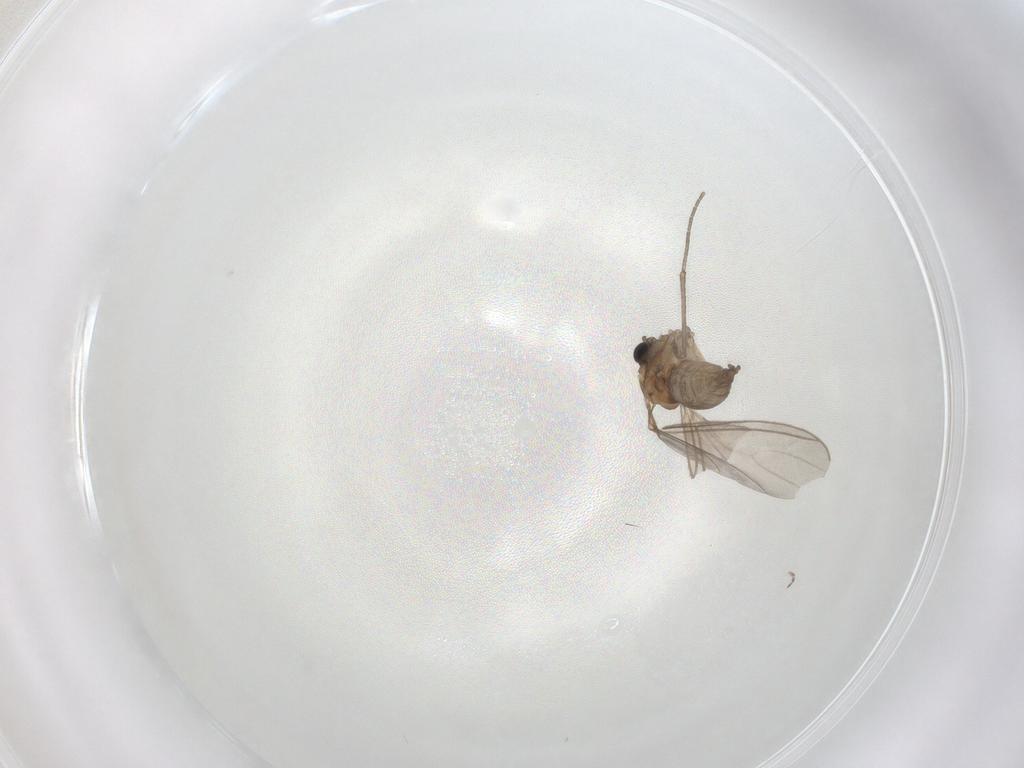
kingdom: Animalia
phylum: Arthropoda
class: Insecta
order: Diptera
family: Sciaridae
